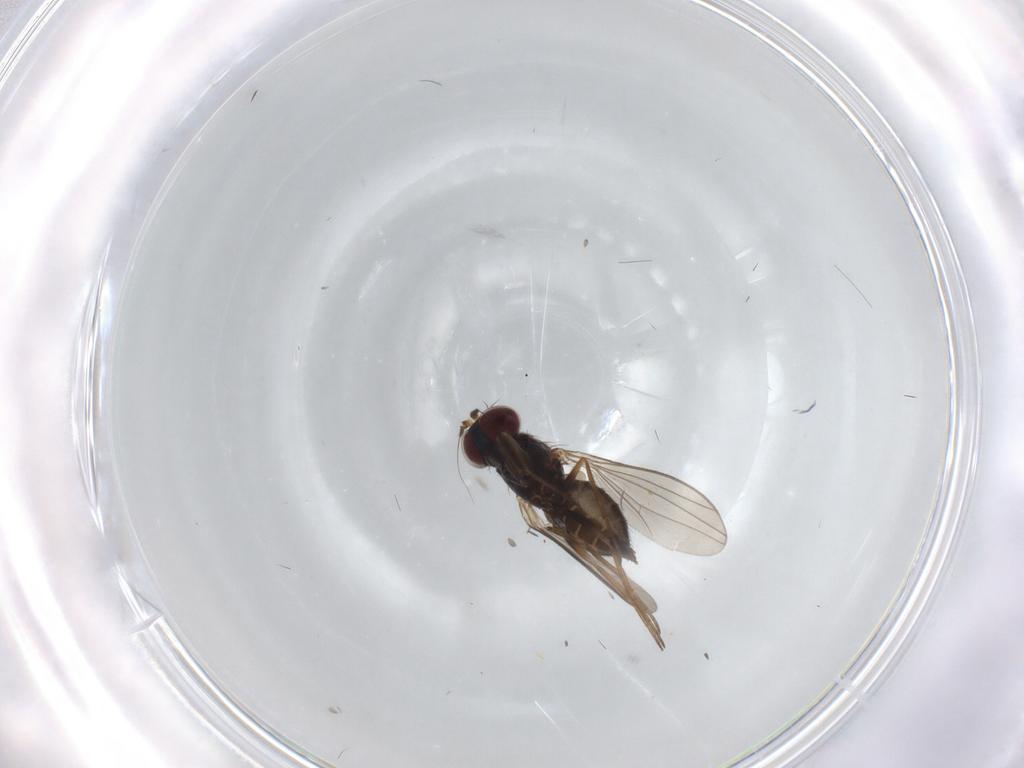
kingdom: Animalia
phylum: Arthropoda
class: Insecta
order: Diptera
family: Dolichopodidae
